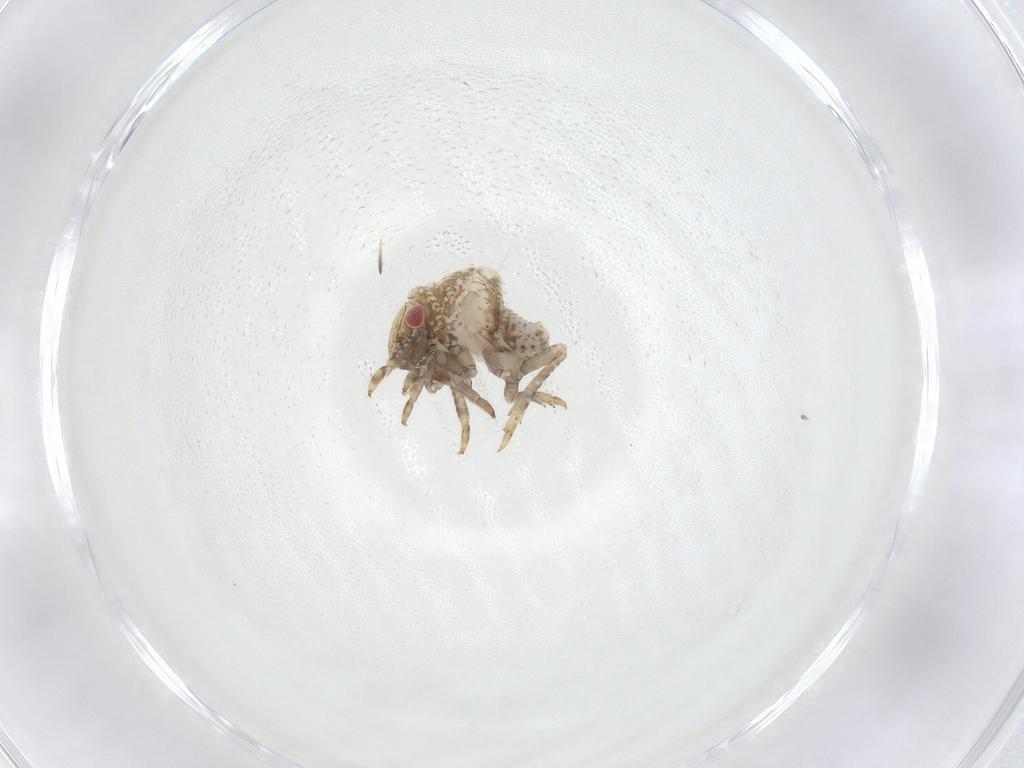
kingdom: Animalia
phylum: Arthropoda
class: Insecta
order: Hemiptera
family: Acanaloniidae
